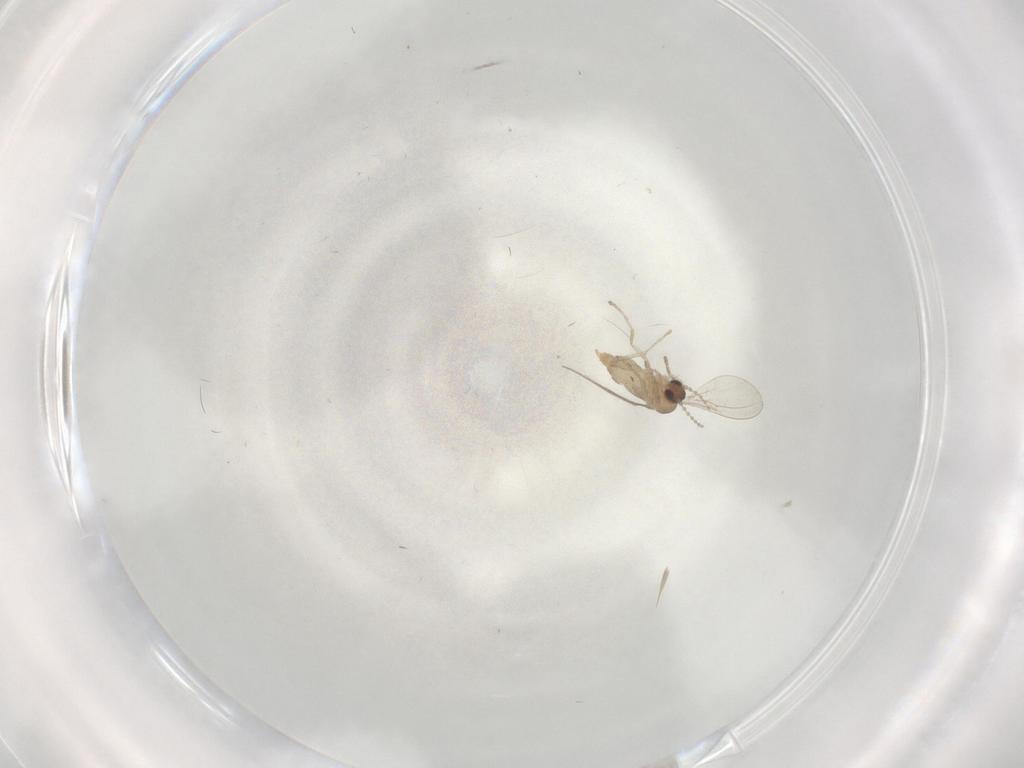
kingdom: Animalia
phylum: Arthropoda
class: Insecta
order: Diptera
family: Cecidomyiidae
